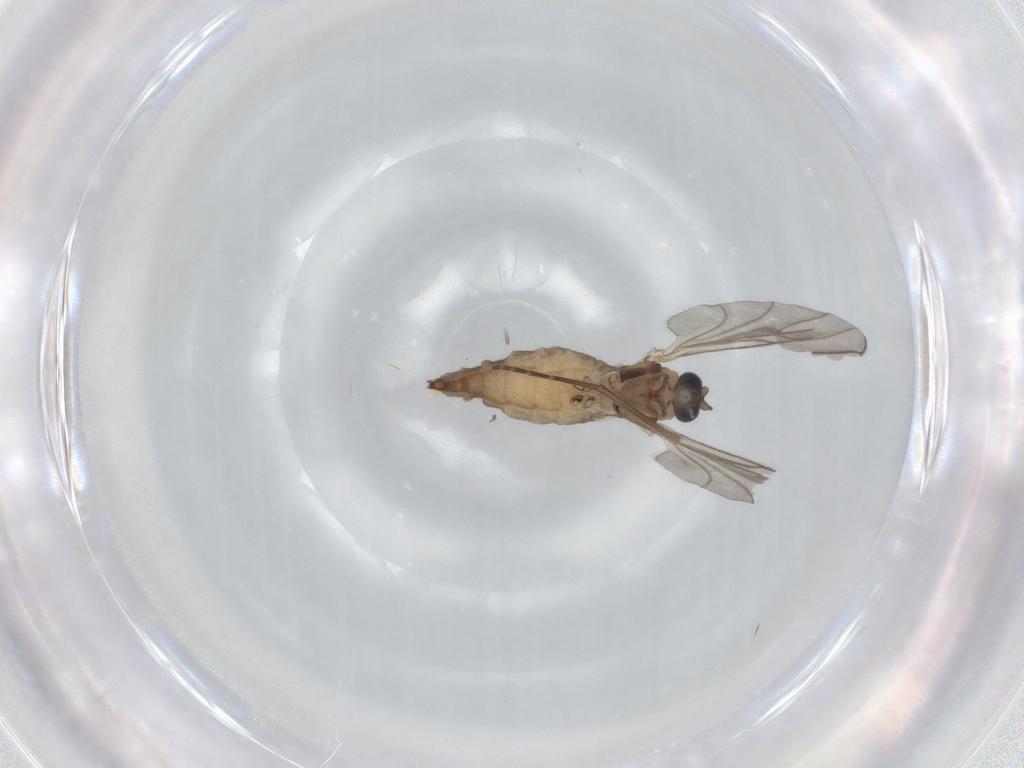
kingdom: Animalia
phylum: Arthropoda
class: Insecta
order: Diptera
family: Sciaridae
